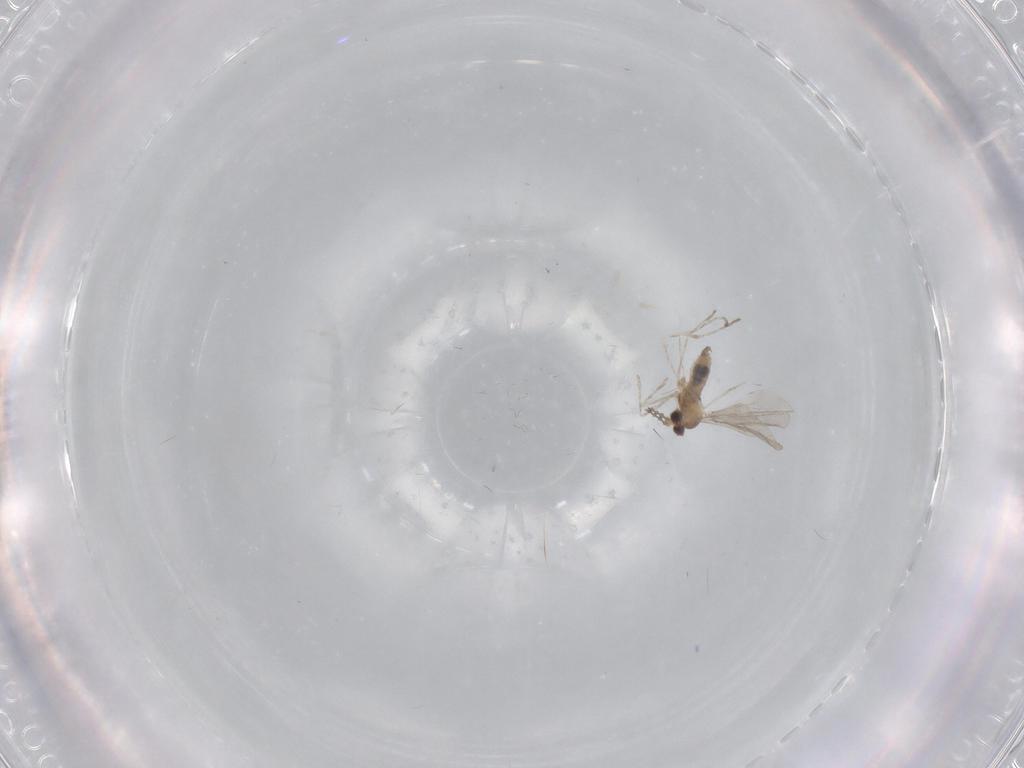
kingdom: Animalia
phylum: Arthropoda
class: Insecta
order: Diptera
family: Cecidomyiidae
